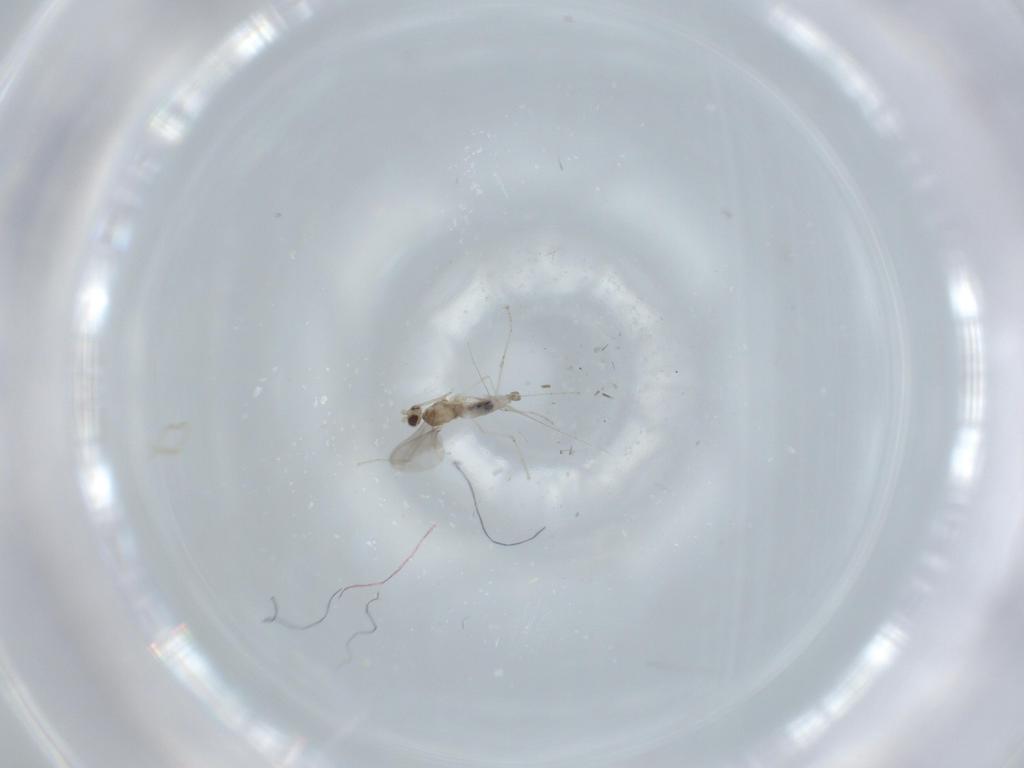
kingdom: Animalia
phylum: Arthropoda
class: Insecta
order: Diptera
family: Cecidomyiidae
